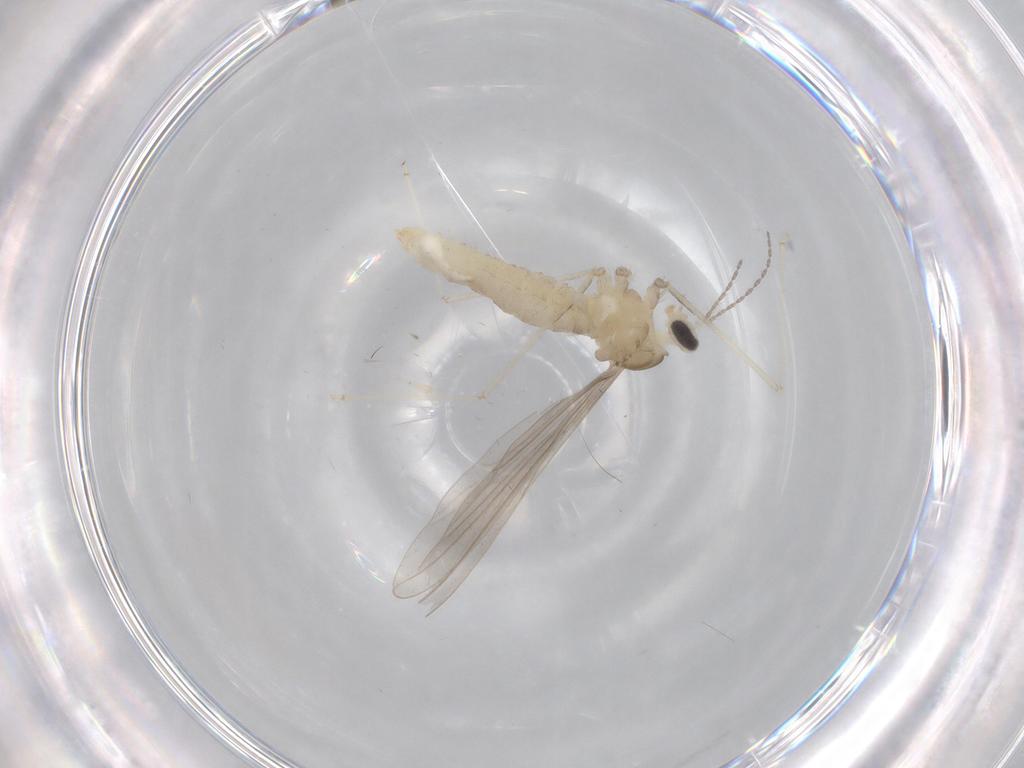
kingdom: Animalia
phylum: Arthropoda
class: Insecta
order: Diptera
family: Cecidomyiidae
